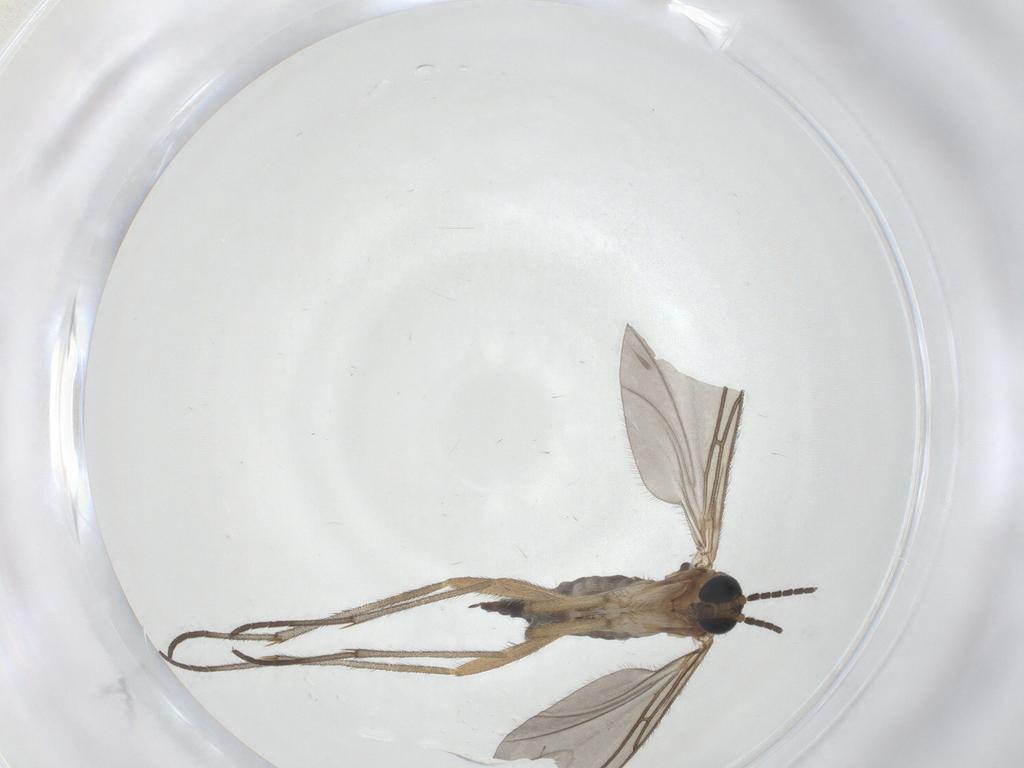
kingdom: Animalia
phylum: Arthropoda
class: Insecta
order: Diptera
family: Sciaridae
